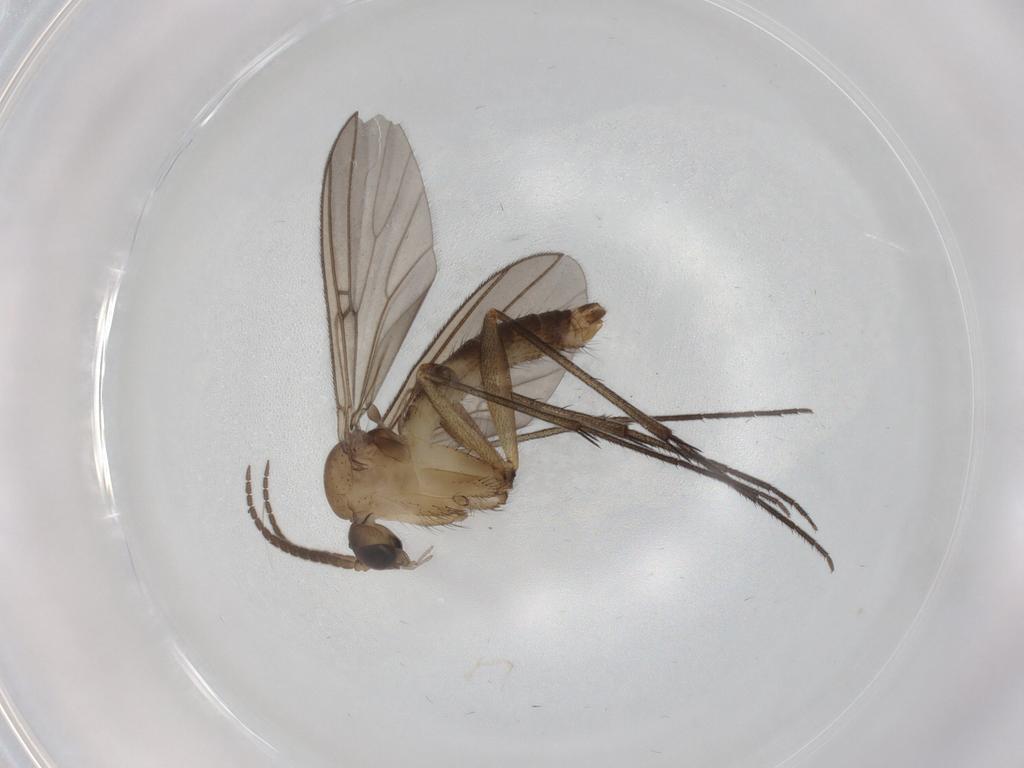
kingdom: Animalia
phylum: Arthropoda
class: Insecta
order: Diptera
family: Mycetophilidae
